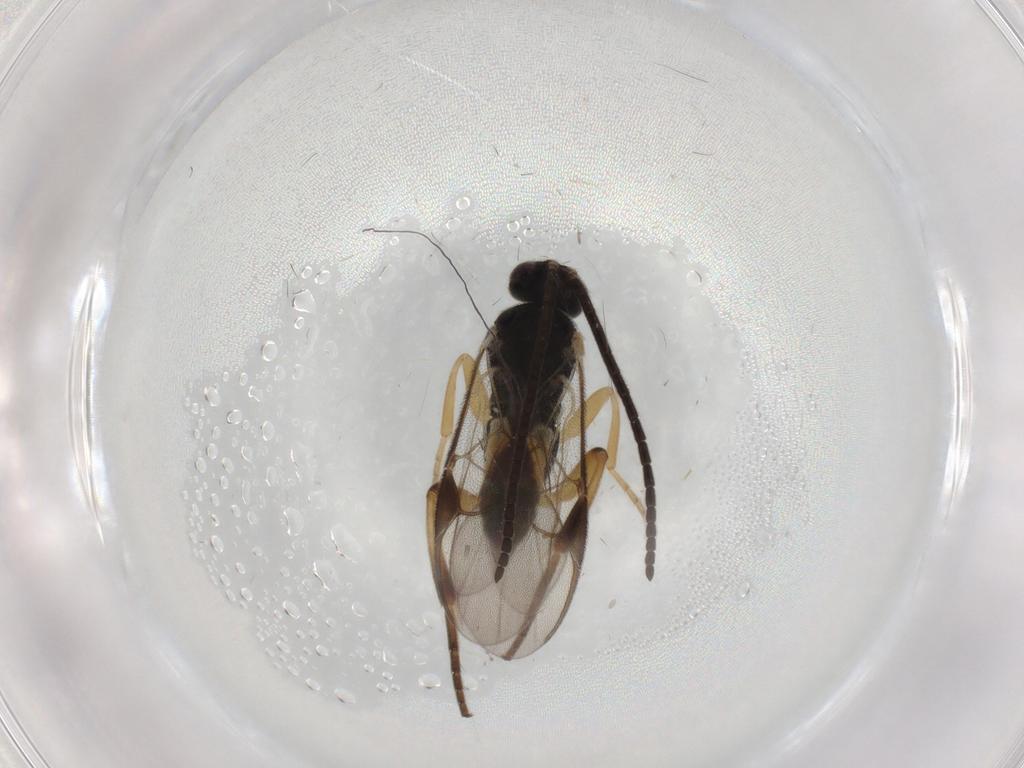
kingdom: Animalia
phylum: Arthropoda
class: Insecta
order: Hymenoptera
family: Braconidae
